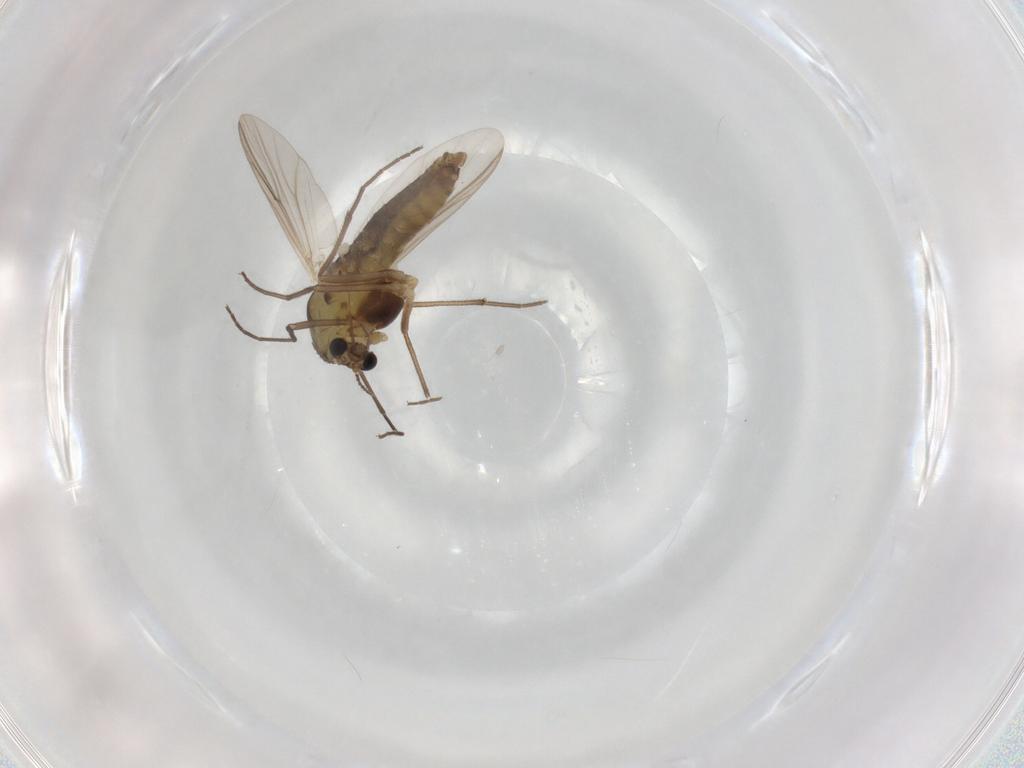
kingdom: Animalia
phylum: Arthropoda
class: Insecta
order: Diptera
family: Chironomidae
